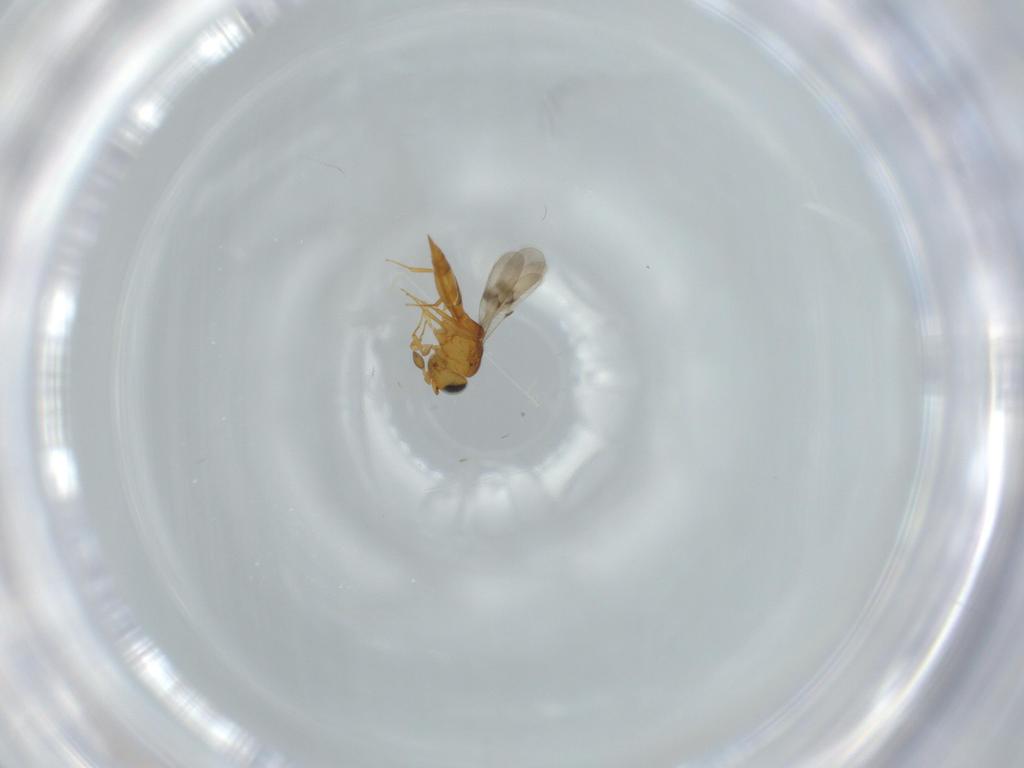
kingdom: Animalia
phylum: Arthropoda
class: Insecta
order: Hymenoptera
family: Scelionidae
